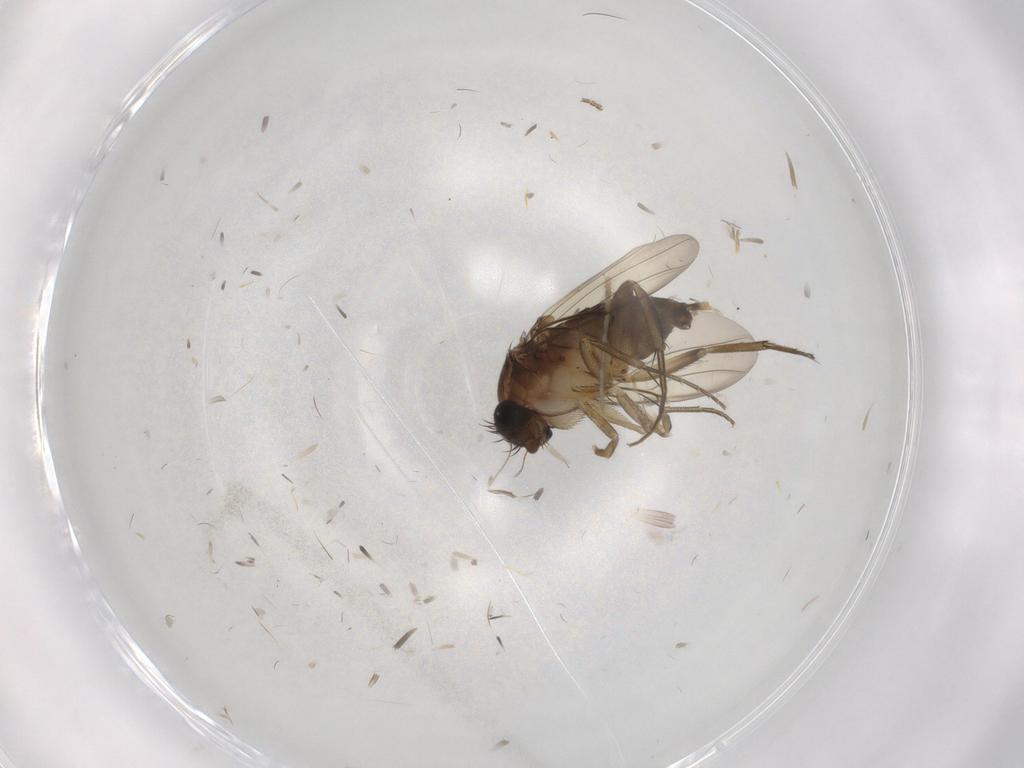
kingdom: Animalia
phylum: Arthropoda
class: Insecta
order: Diptera
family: Phoridae
